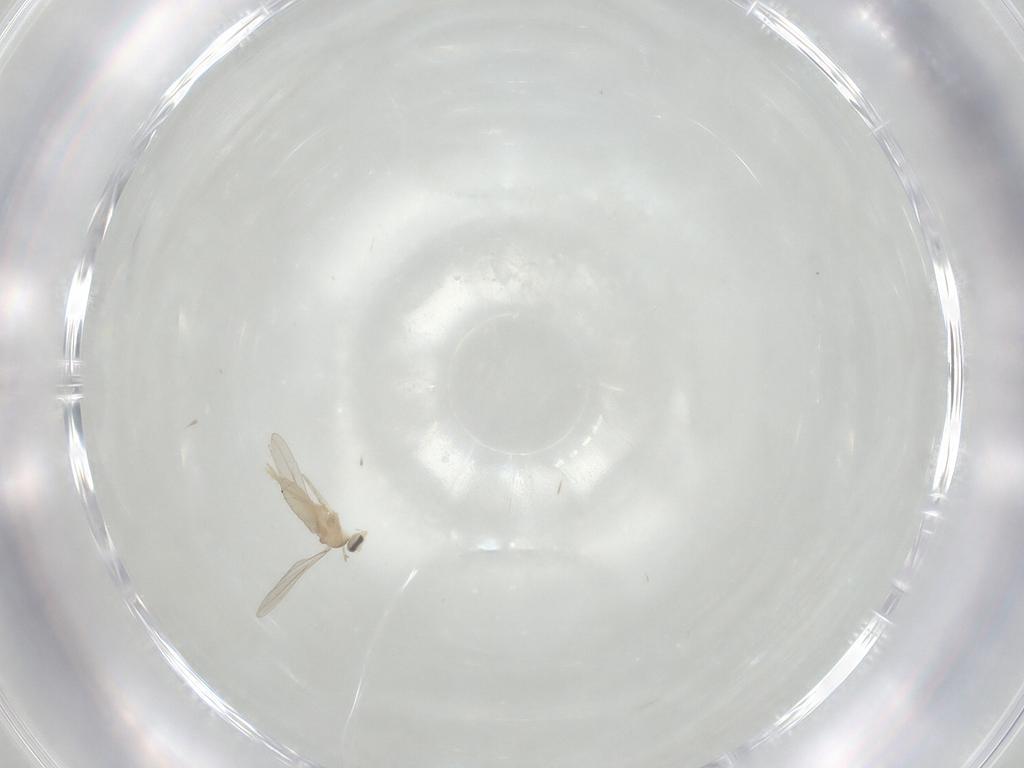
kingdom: Animalia
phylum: Arthropoda
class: Insecta
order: Diptera
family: Cecidomyiidae
